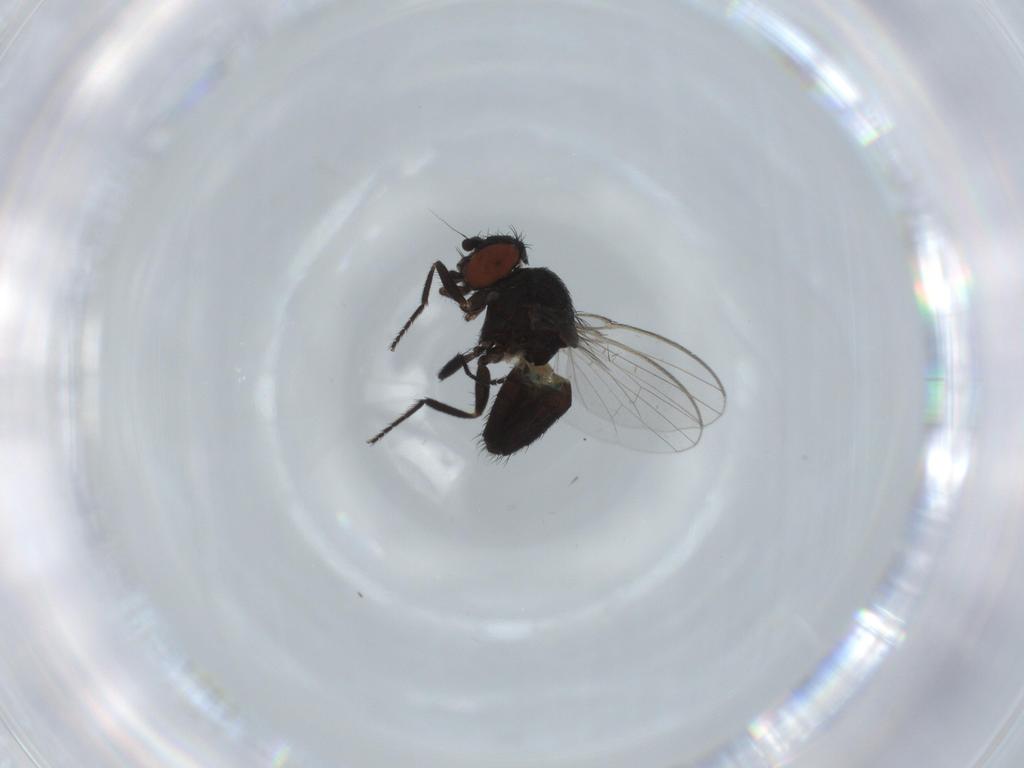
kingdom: Animalia
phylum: Arthropoda
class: Insecta
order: Diptera
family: Milichiidae
